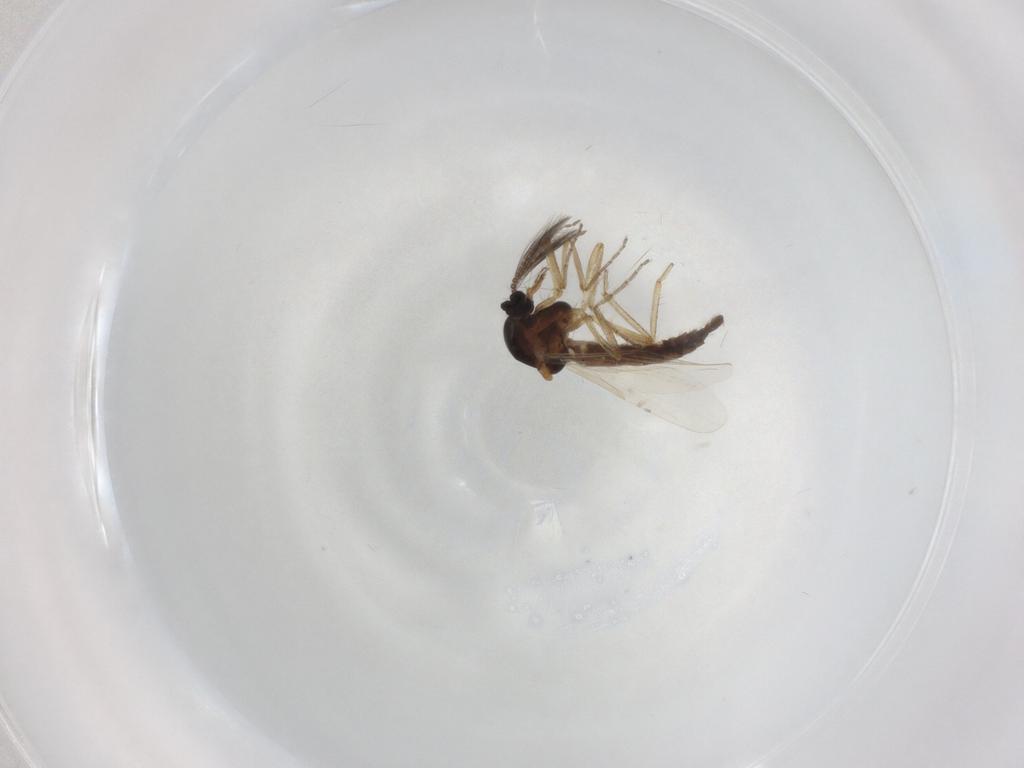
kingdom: Animalia
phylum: Arthropoda
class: Insecta
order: Diptera
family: Ceratopogonidae
